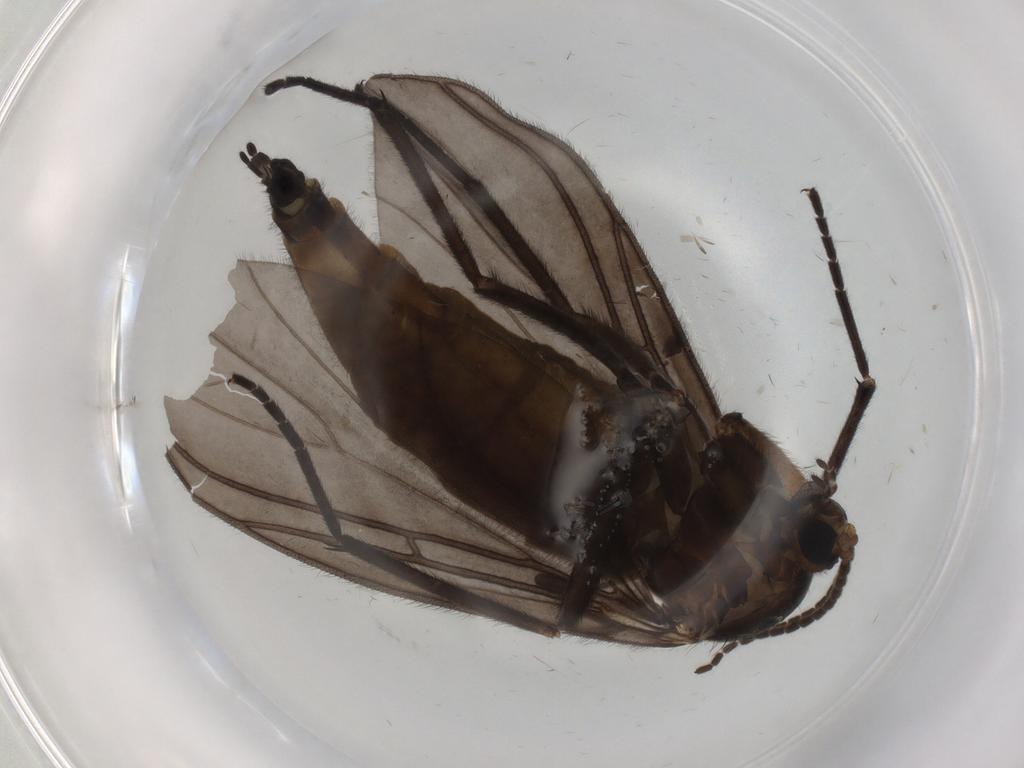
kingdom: Animalia
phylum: Arthropoda
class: Insecta
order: Diptera
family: Sciaridae
